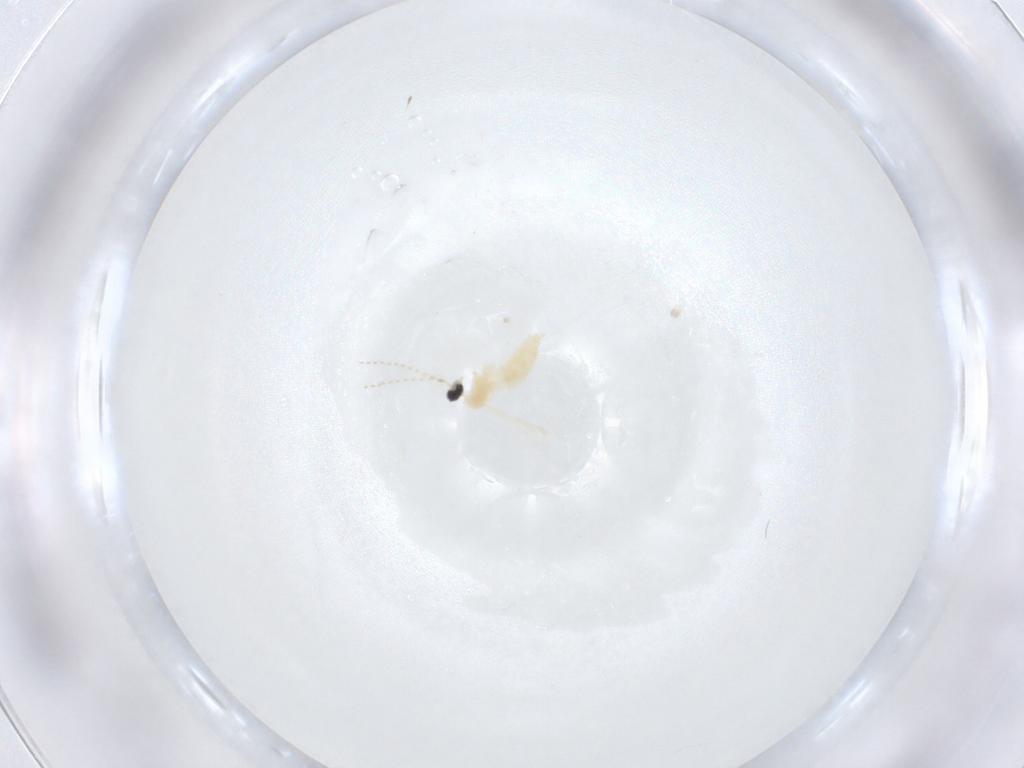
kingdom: Animalia
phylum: Arthropoda
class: Insecta
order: Diptera
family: Cecidomyiidae
